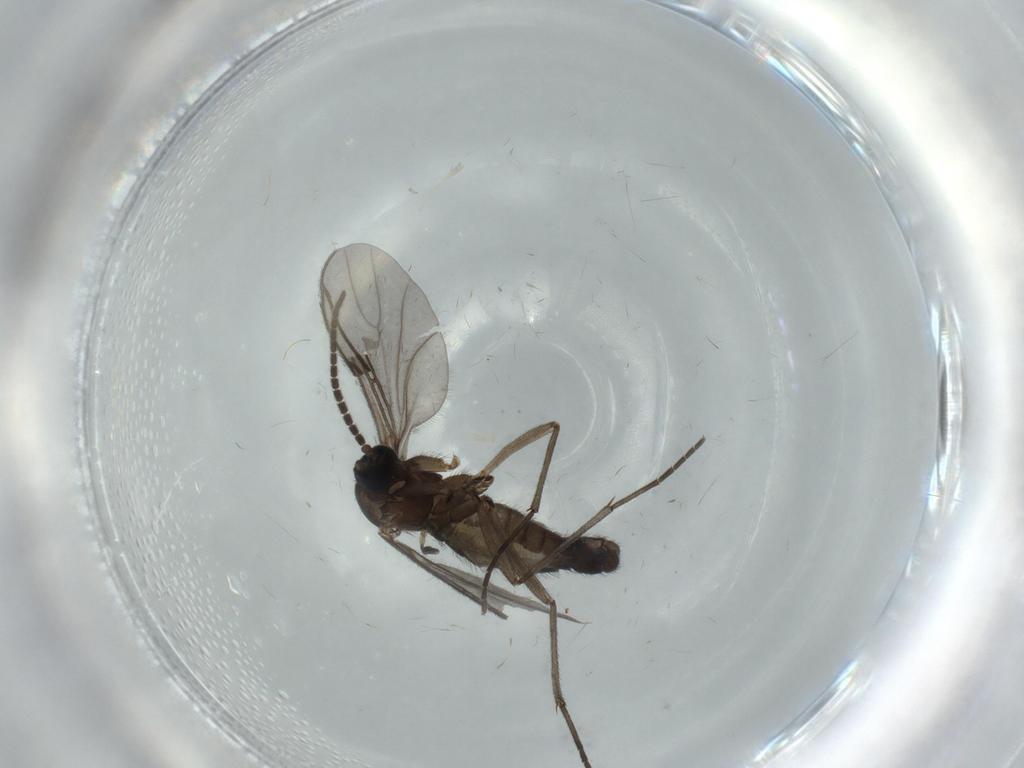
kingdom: Animalia
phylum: Arthropoda
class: Insecta
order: Diptera
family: Sciaridae
